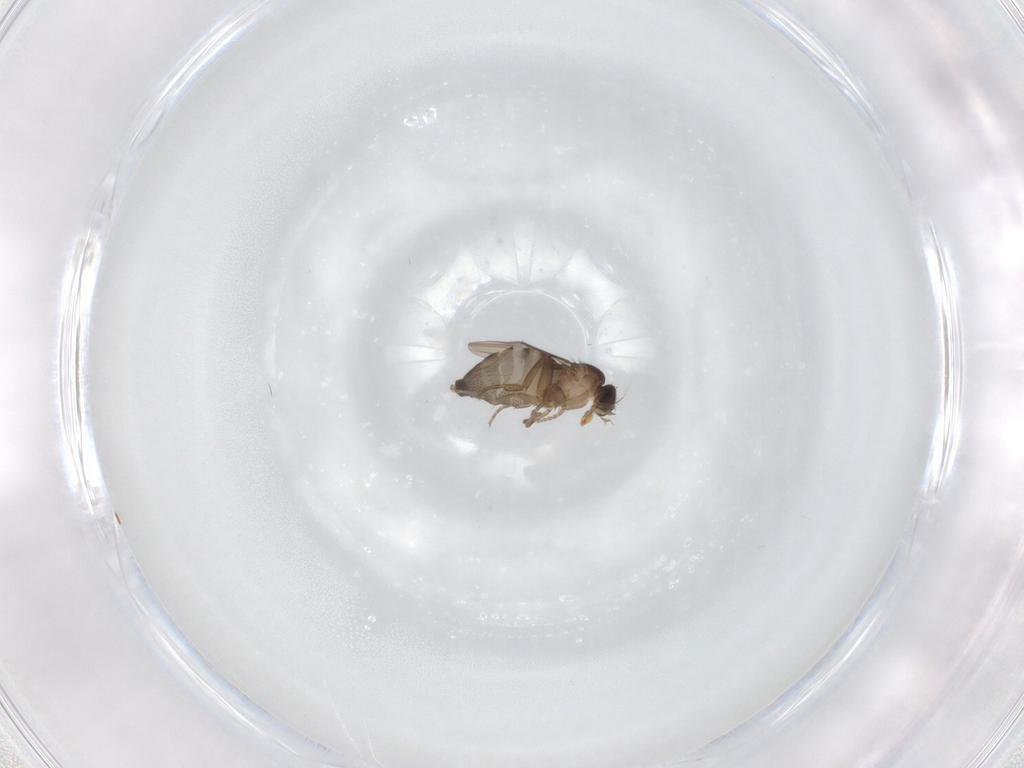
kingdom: Animalia
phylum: Arthropoda
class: Insecta
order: Diptera
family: Phoridae
